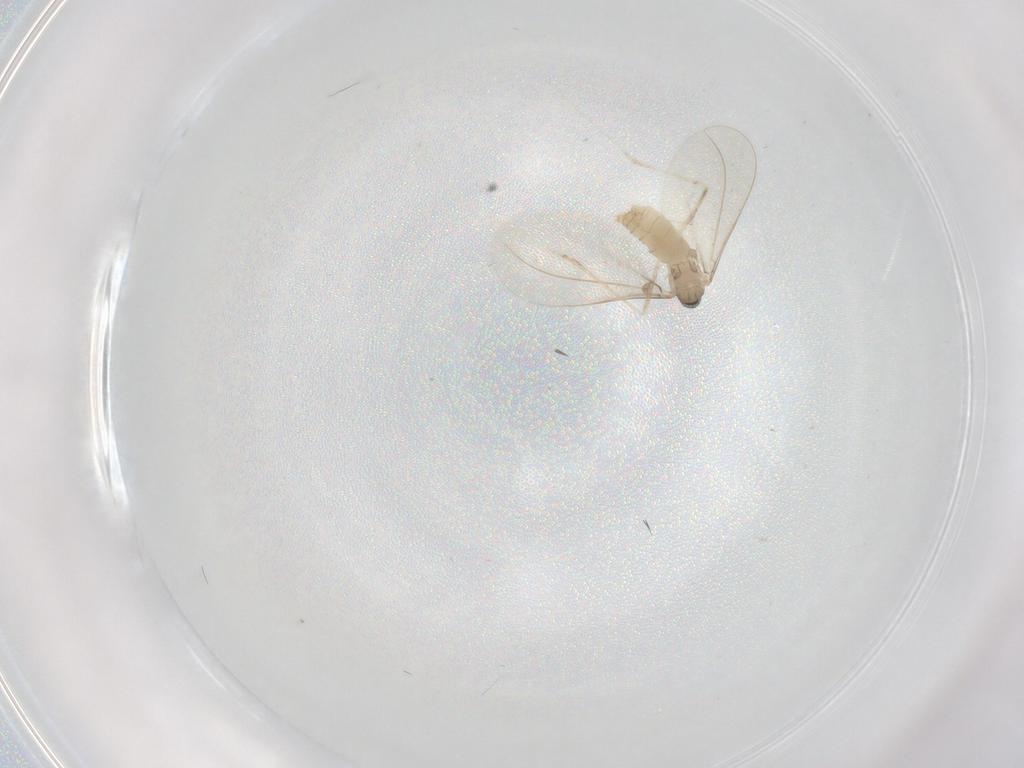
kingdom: Animalia
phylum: Arthropoda
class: Insecta
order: Diptera
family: Cecidomyiidae
